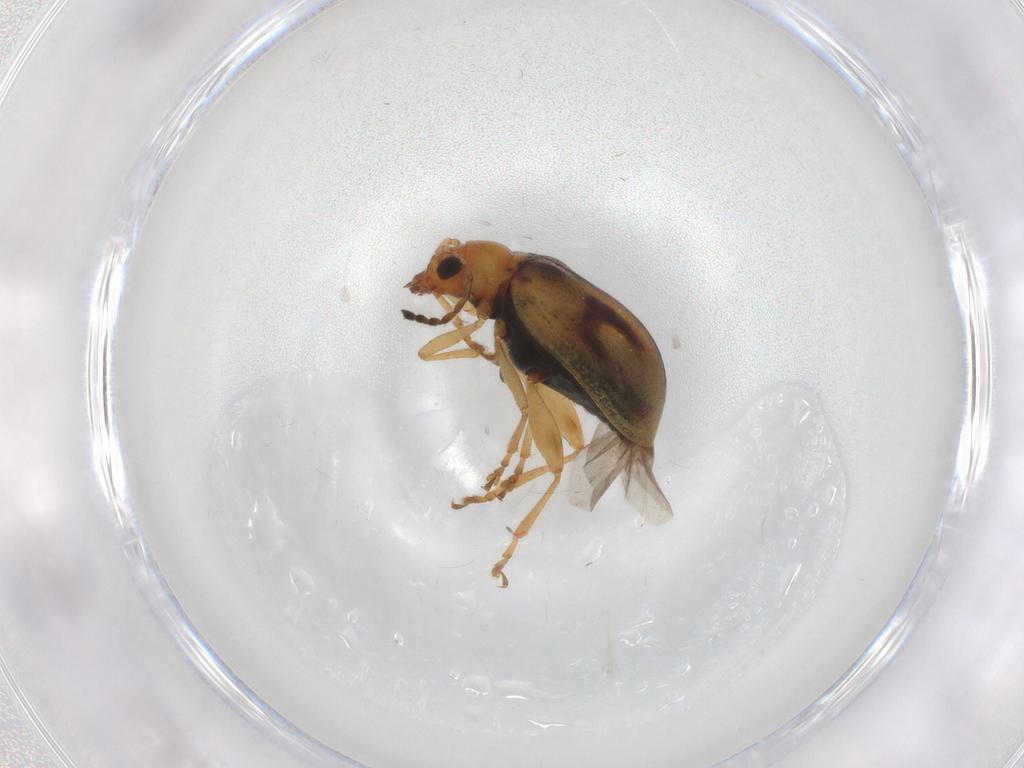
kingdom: Animalia
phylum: Arthropoda
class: Insecta
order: Coleoptera
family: Chrysomelidae
